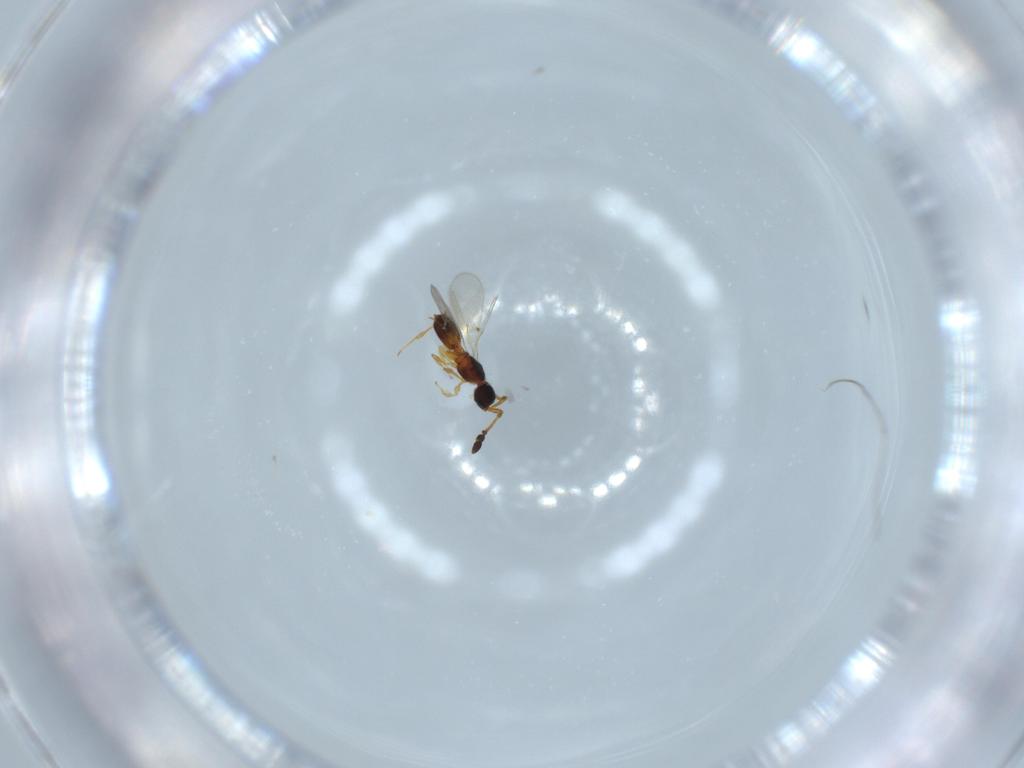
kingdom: Animalia
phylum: Arthropoda
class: Insecta
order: Hymenoptera
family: Diapriidae
